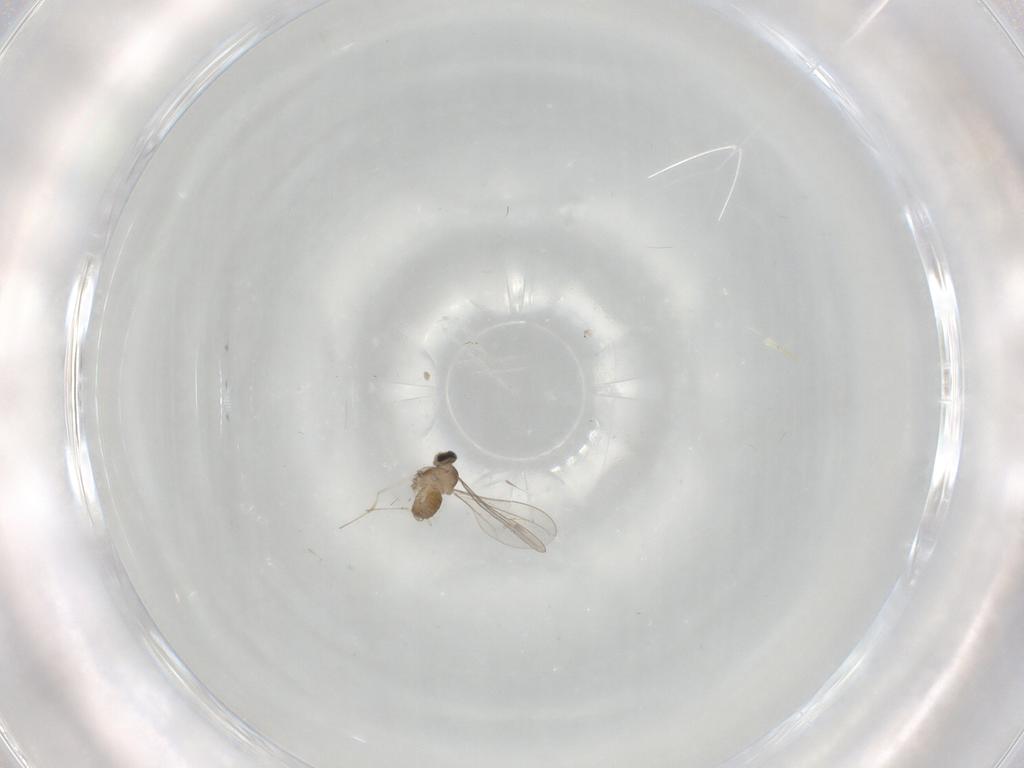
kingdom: Animalia
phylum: Arthropoda
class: Insecta
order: Diptera
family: Cecidomyiidae
